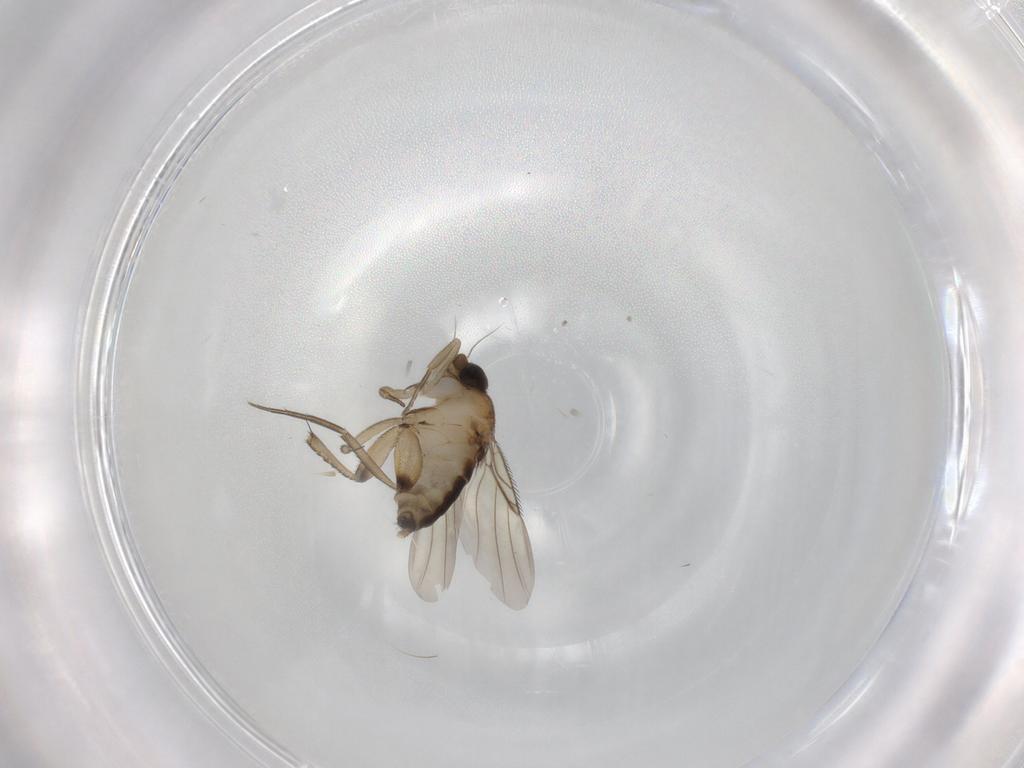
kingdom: Animalia
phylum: Arthropoda
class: Insecta
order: Diptera
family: Phoridae
